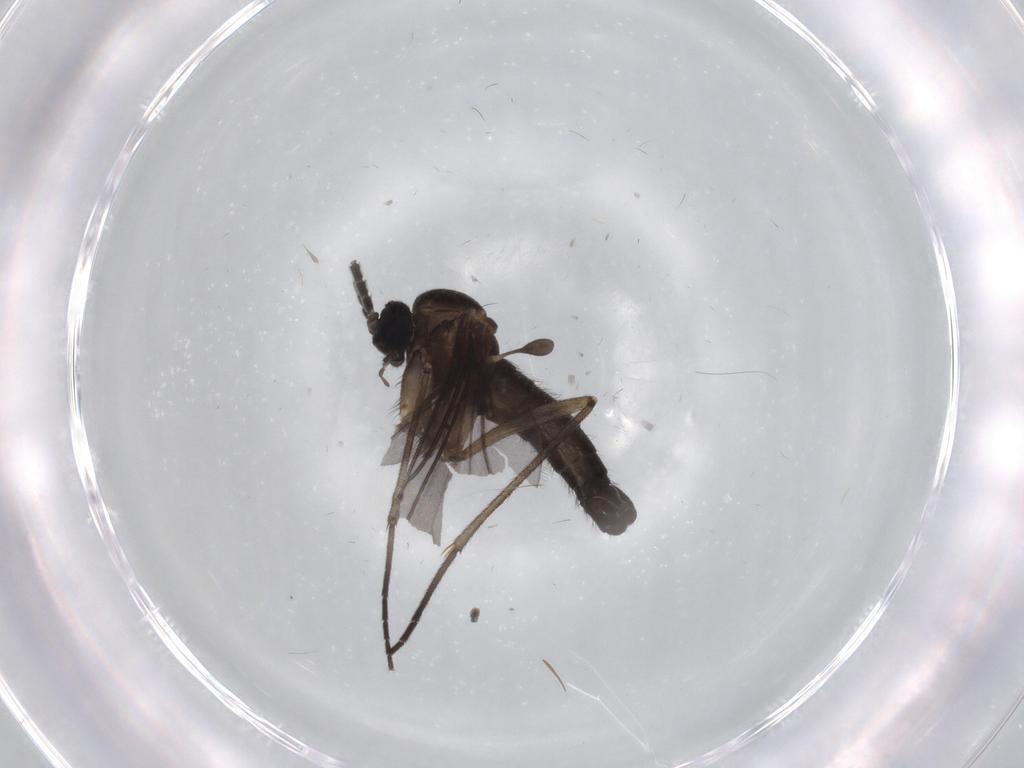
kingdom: Animalia
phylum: Arthropoda
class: Insecta
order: Diptera
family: Sciaridae
